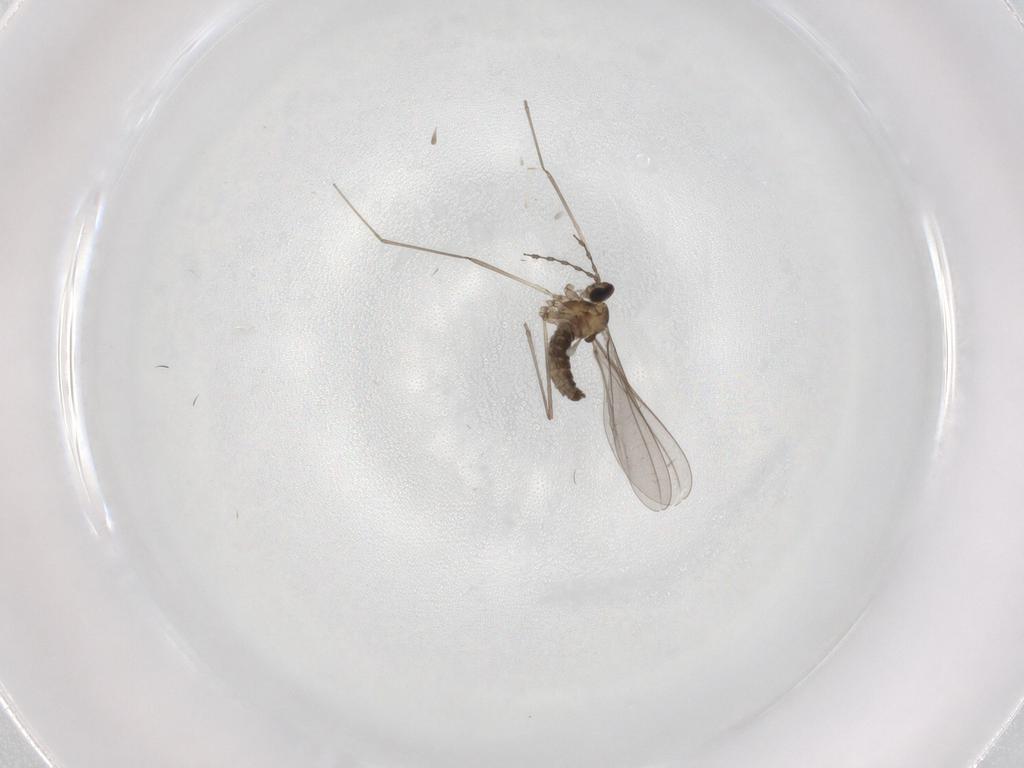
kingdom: Animalia
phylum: Arthropoda
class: Insecta
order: Diptera
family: Cecidomyiidae
